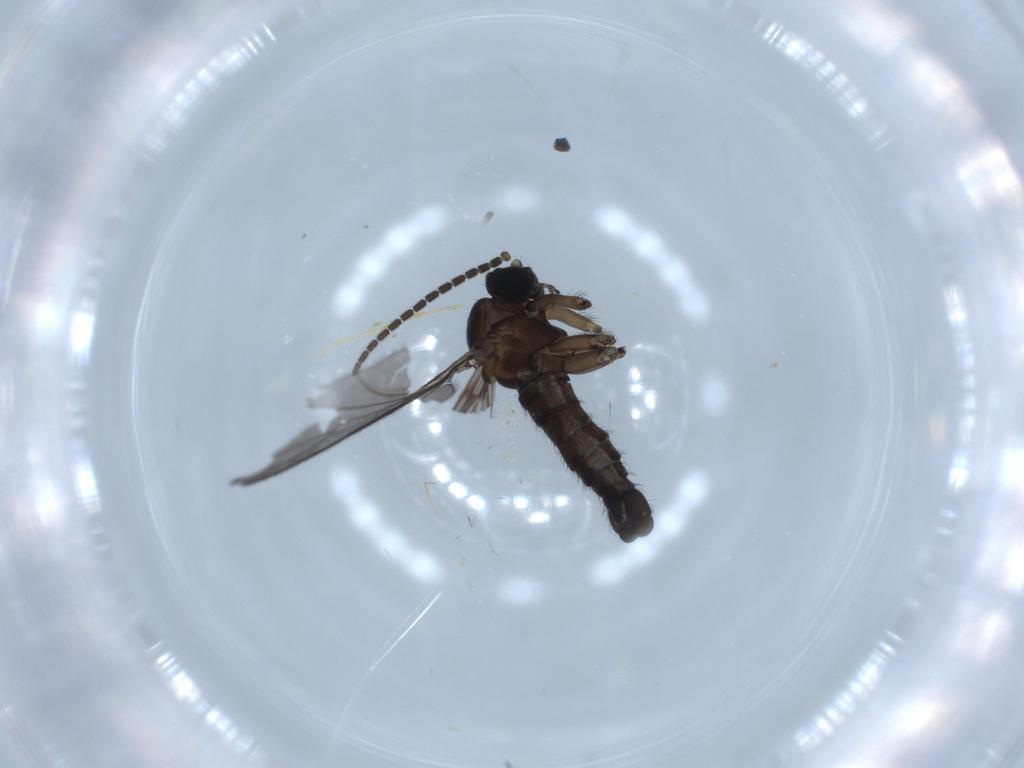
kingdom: Animalia
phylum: Arthropoda
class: Insecta
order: Diptera
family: Sciaridae
